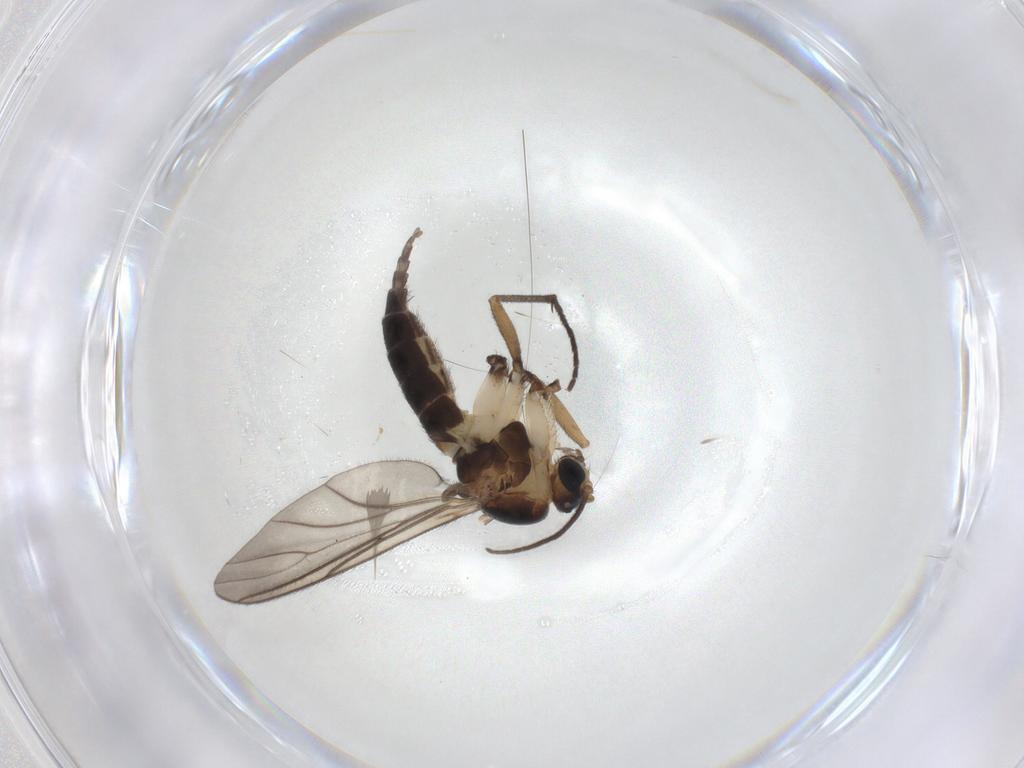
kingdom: Animalia
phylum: Arthropoda
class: Insecta
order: Diptera
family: Sciaridae
